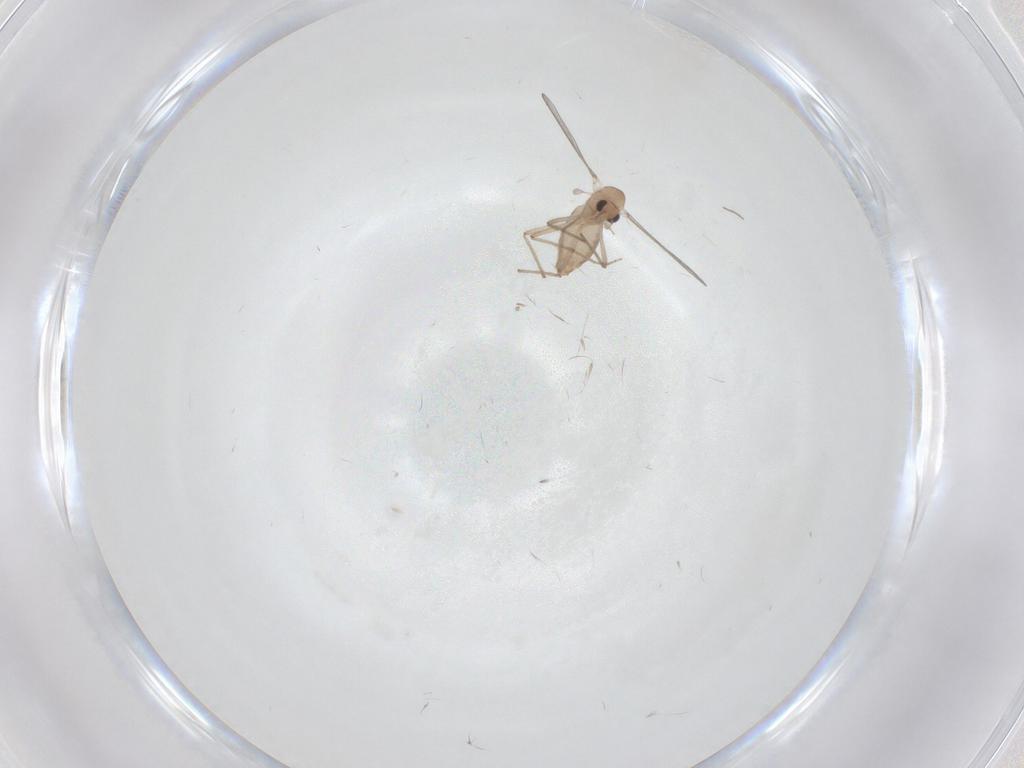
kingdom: Animalia
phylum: Arthropoda
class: Insecta
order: Diptera
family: Chironomidae
